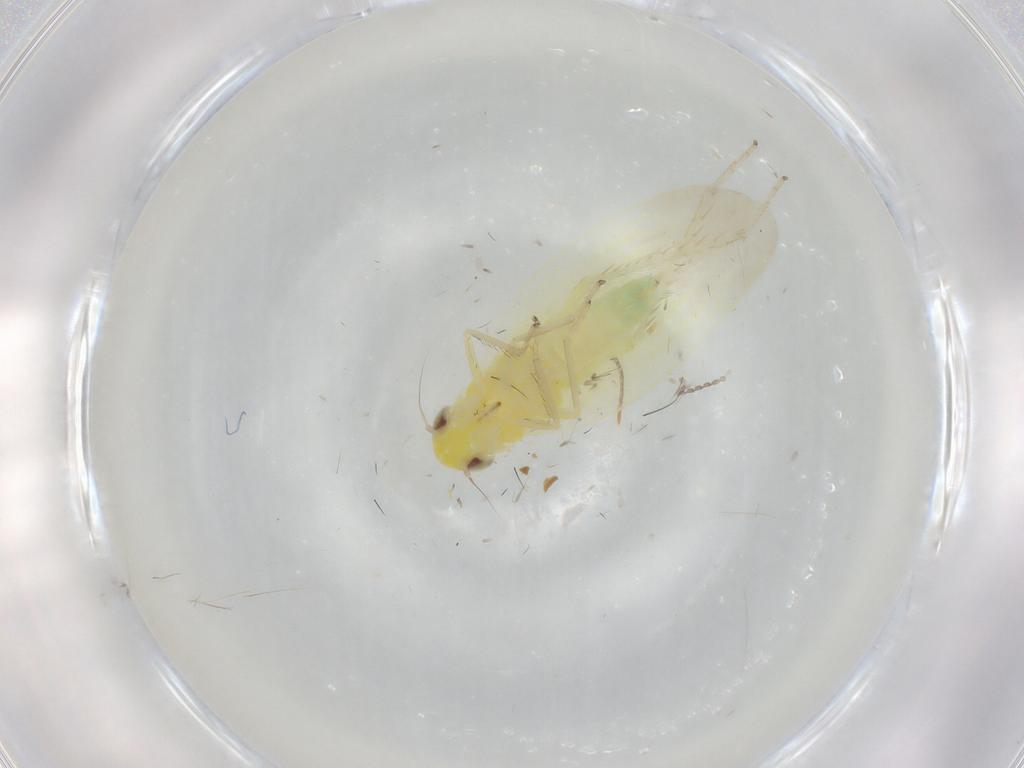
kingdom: Animalia
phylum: Arthropoda
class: Insecta
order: Hemiptera
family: Cicadellidae
